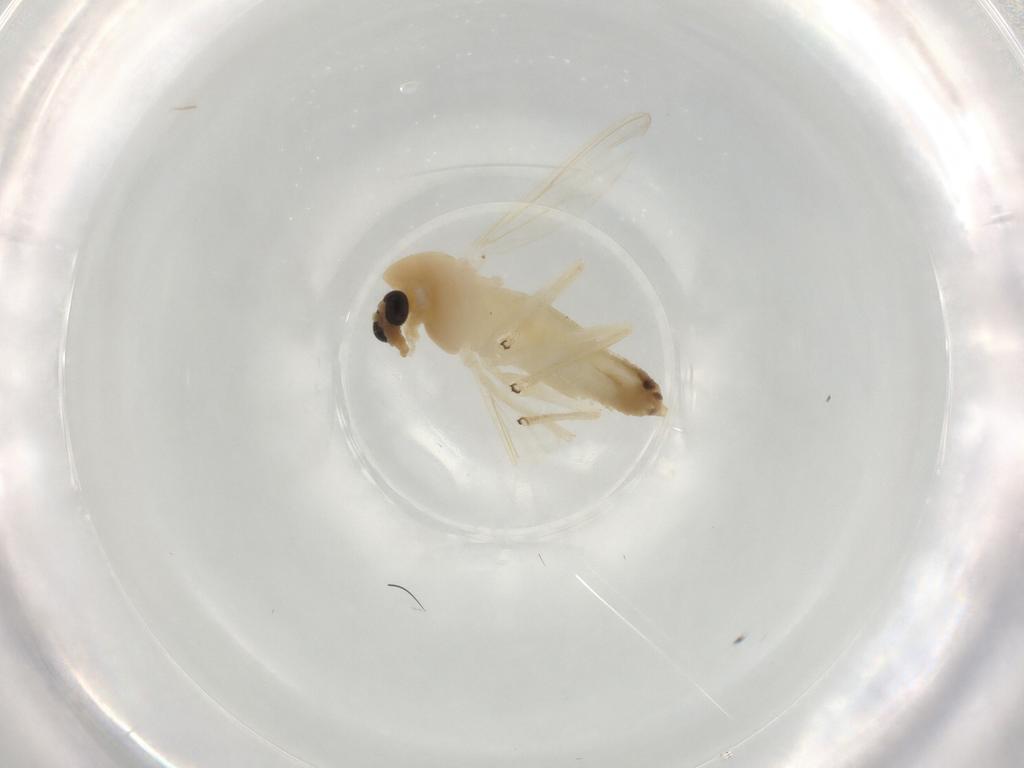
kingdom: Animalia
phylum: Arthropoda
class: Insecta
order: Diptera
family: Chironomidae
